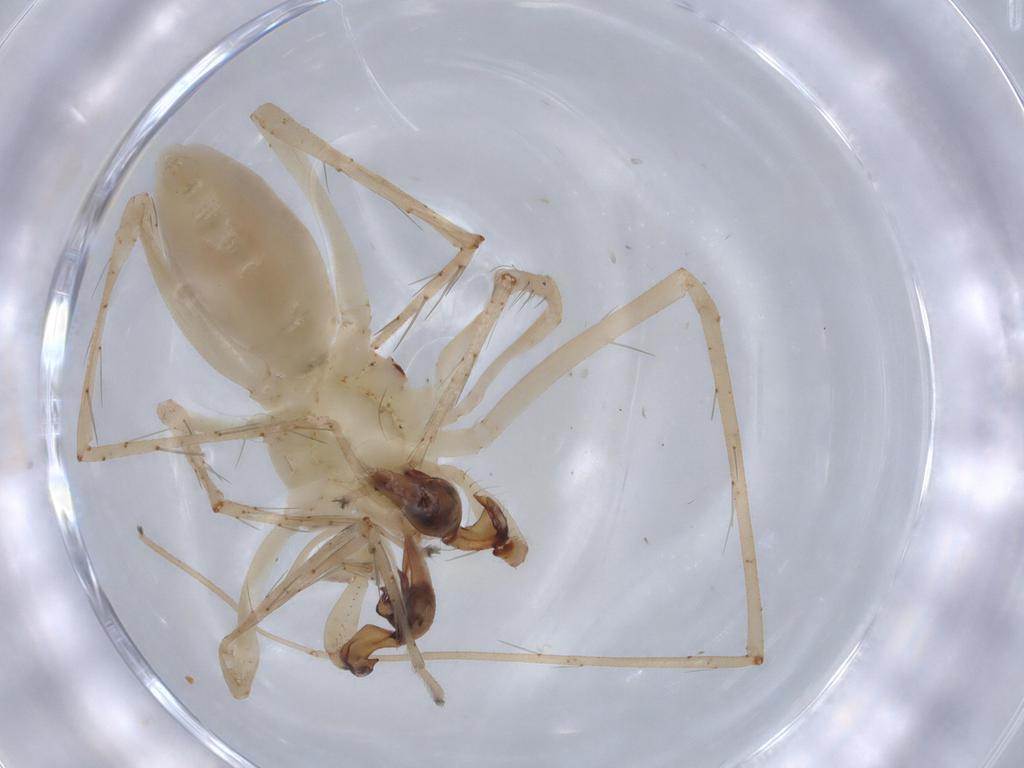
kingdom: Animalia
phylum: Arthropoda
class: Arachnida
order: Araneae
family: Anyphaenidae
